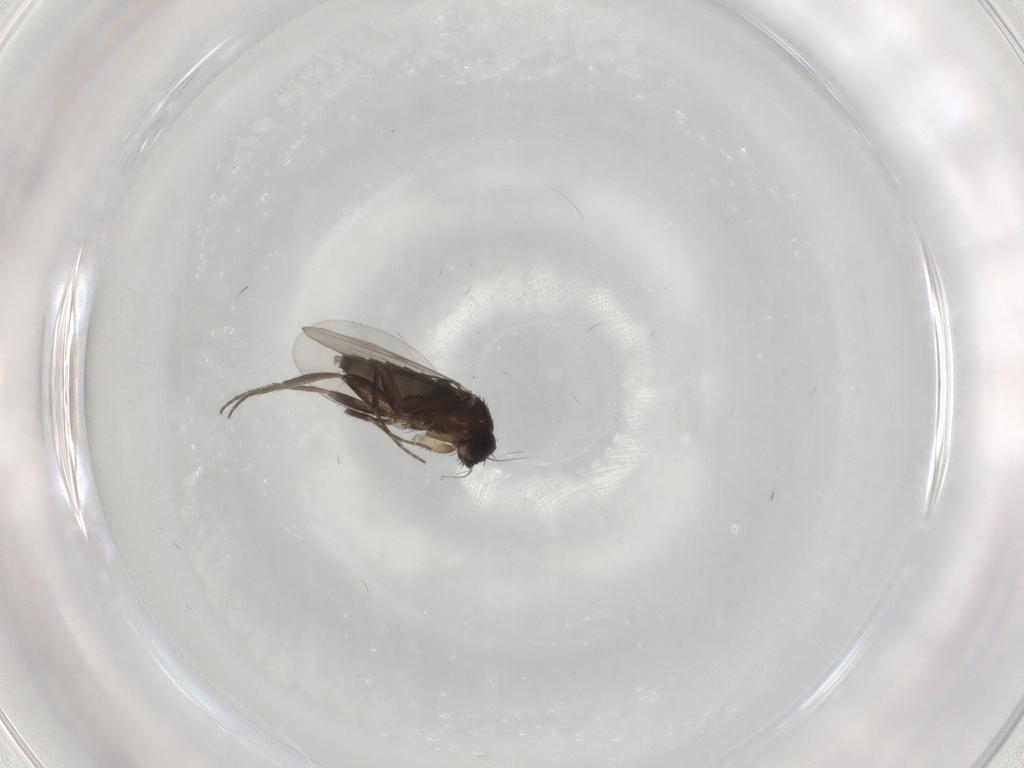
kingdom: Animalia
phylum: Arthropoda
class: Insecta
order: Diptera
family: Phoridae
